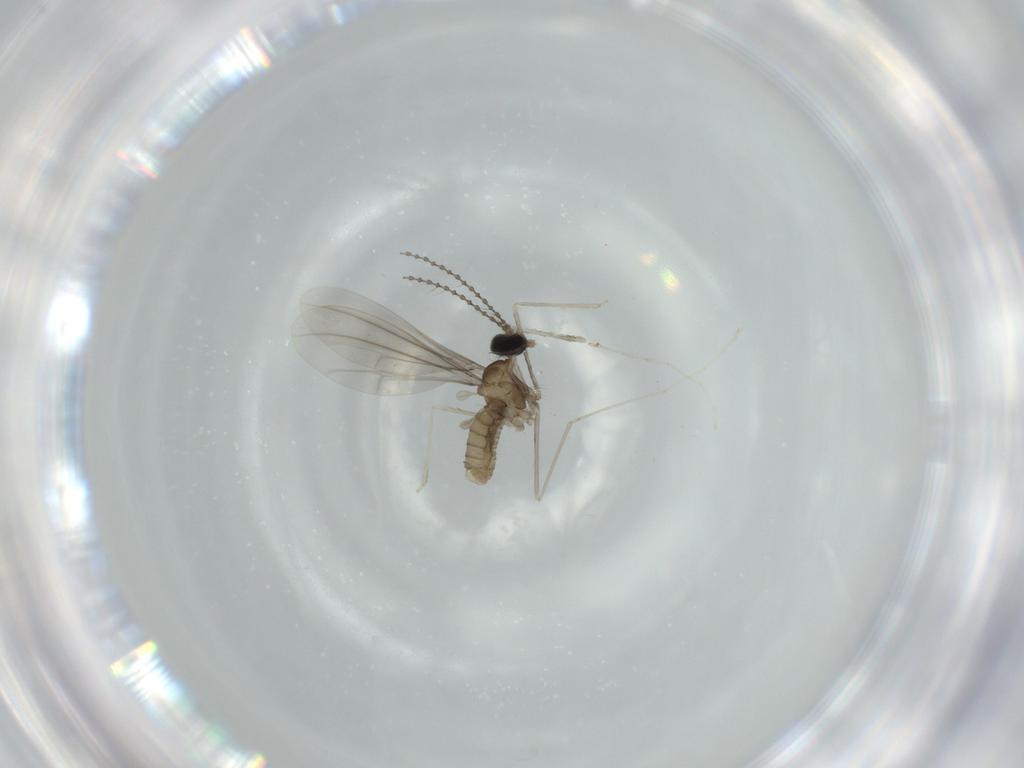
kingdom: Animalia
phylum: Arthropoda
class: Insecta
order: Diptera
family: Cecidomyiidae
